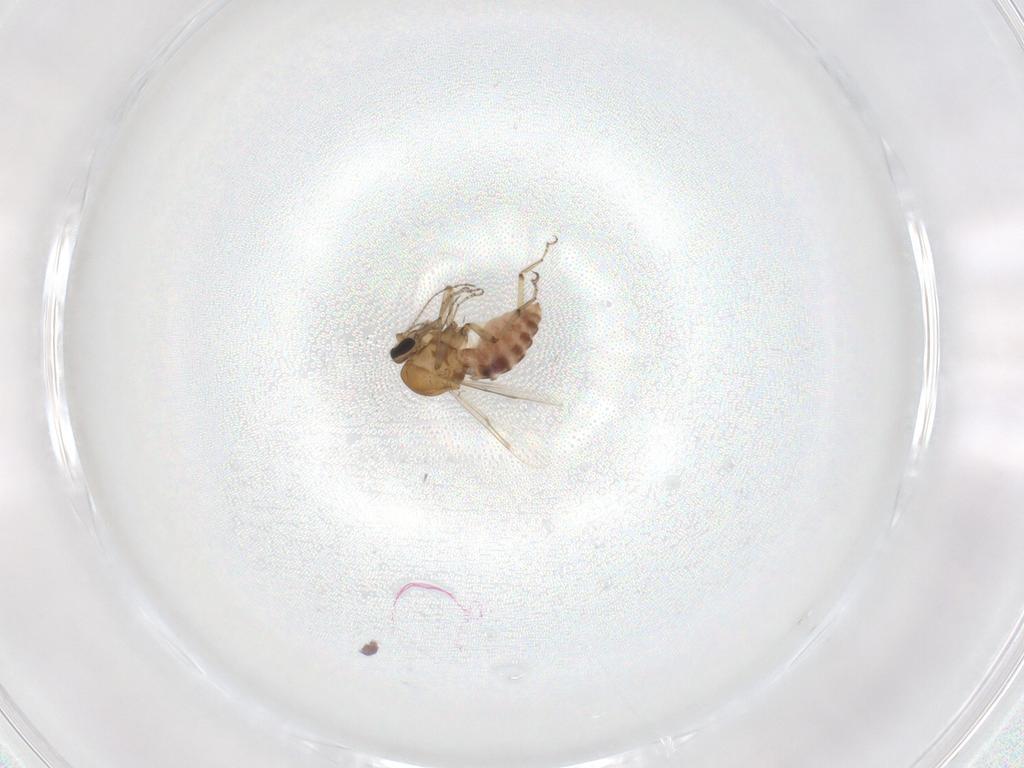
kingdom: Animalia
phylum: Arthropoda
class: Insecta
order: Diptera
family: Ceratopogonidae
